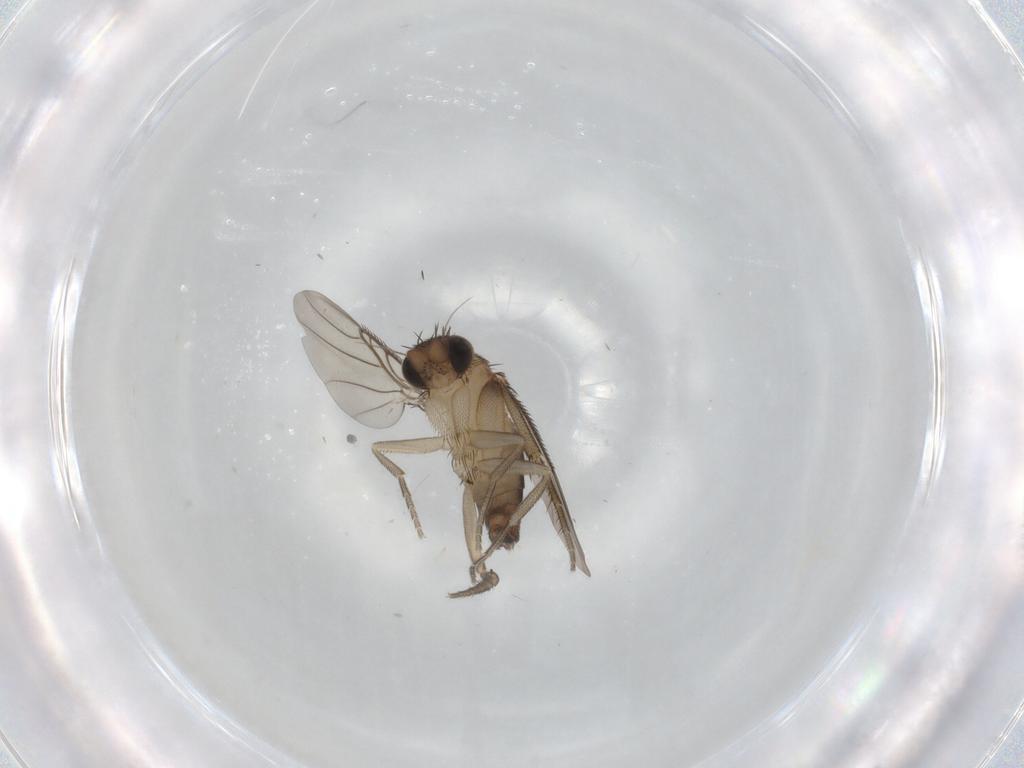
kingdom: Animalia
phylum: Arthropoda
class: Insecta
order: Diptera
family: Phoridae
